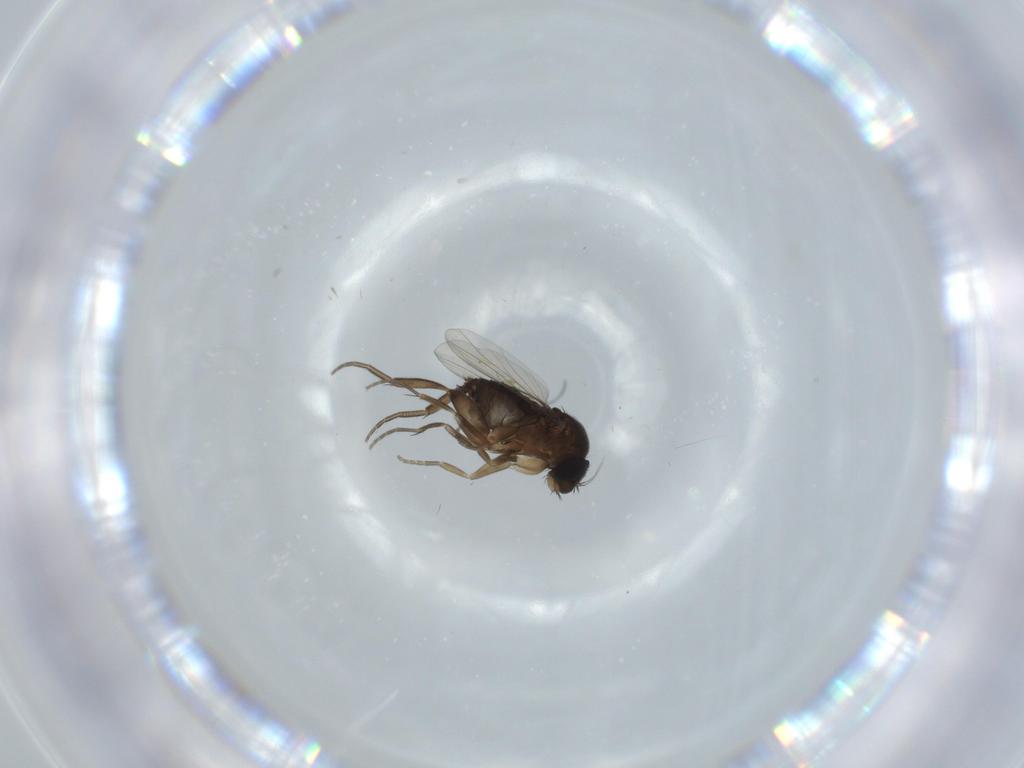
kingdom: Animalia
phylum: Arthropoda
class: Insecta
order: Diptera
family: Phoridae
